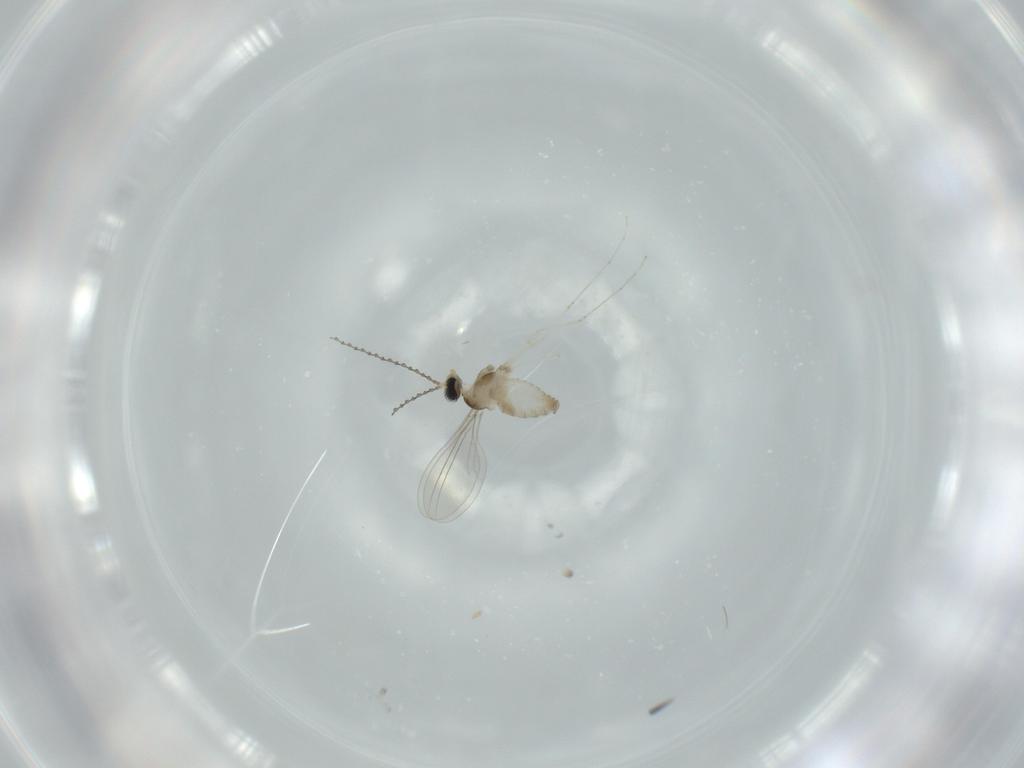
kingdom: Animalia
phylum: Arthropoda
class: Insecta
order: Diptera
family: Cecidomyiidae
